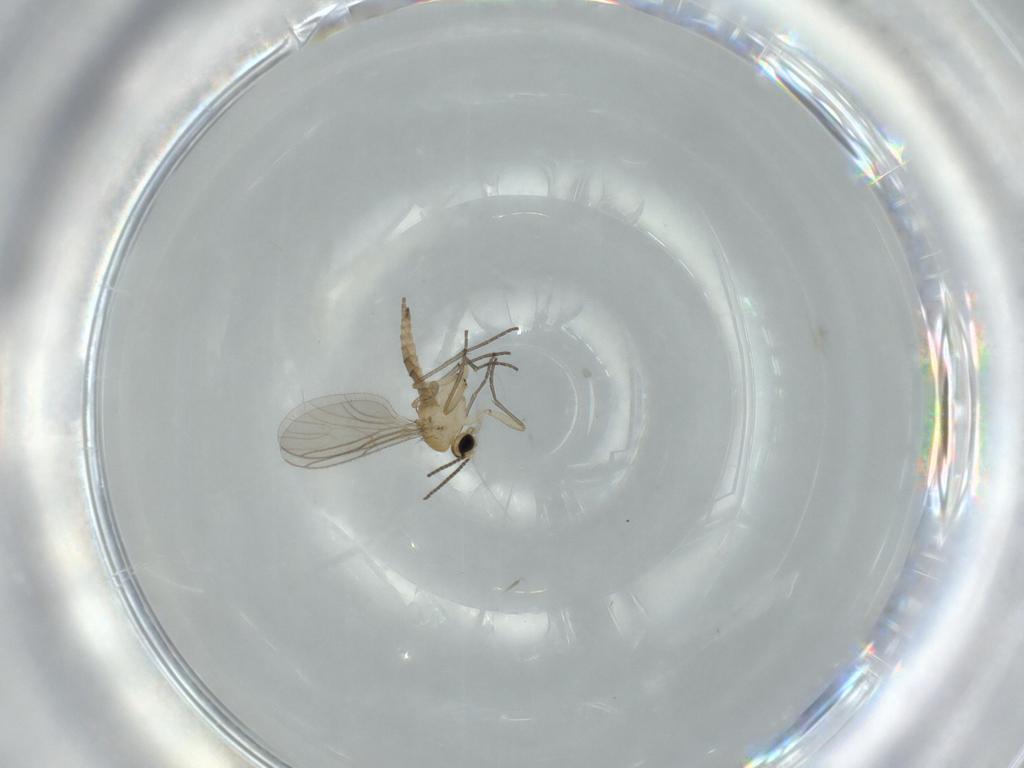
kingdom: Animalia
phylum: Arthropoda
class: Insecta
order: Diptera
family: Sciaridae
